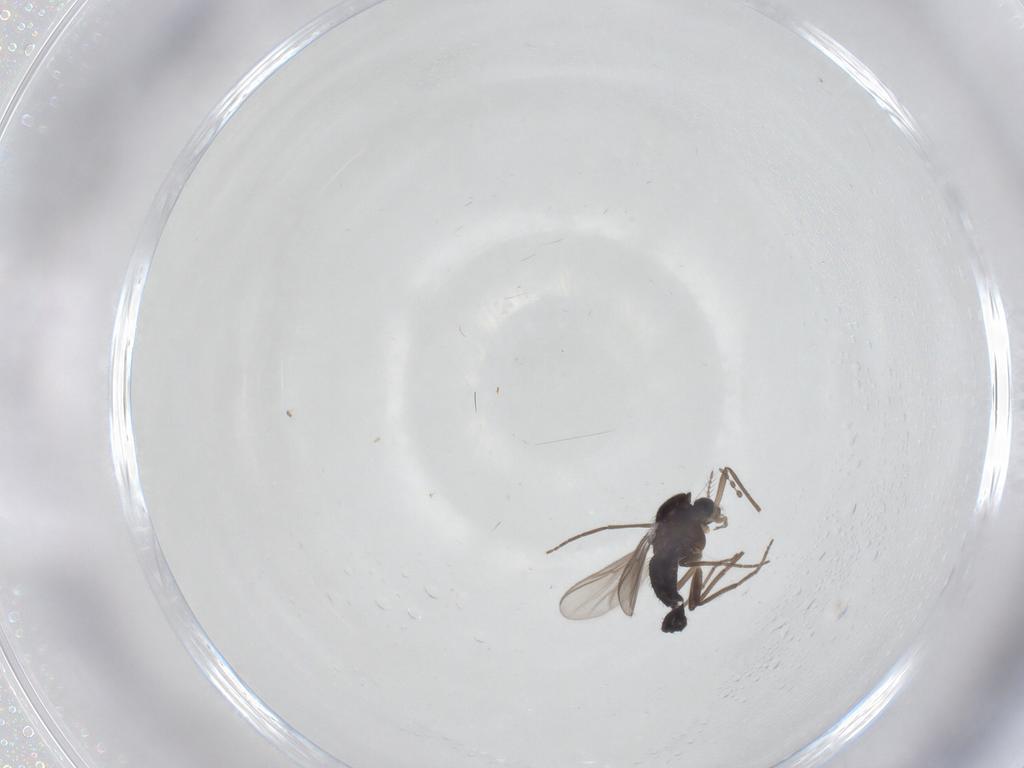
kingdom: Animalia
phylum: Arthropoda
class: Insecta
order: Diptera
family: Chironomidae
